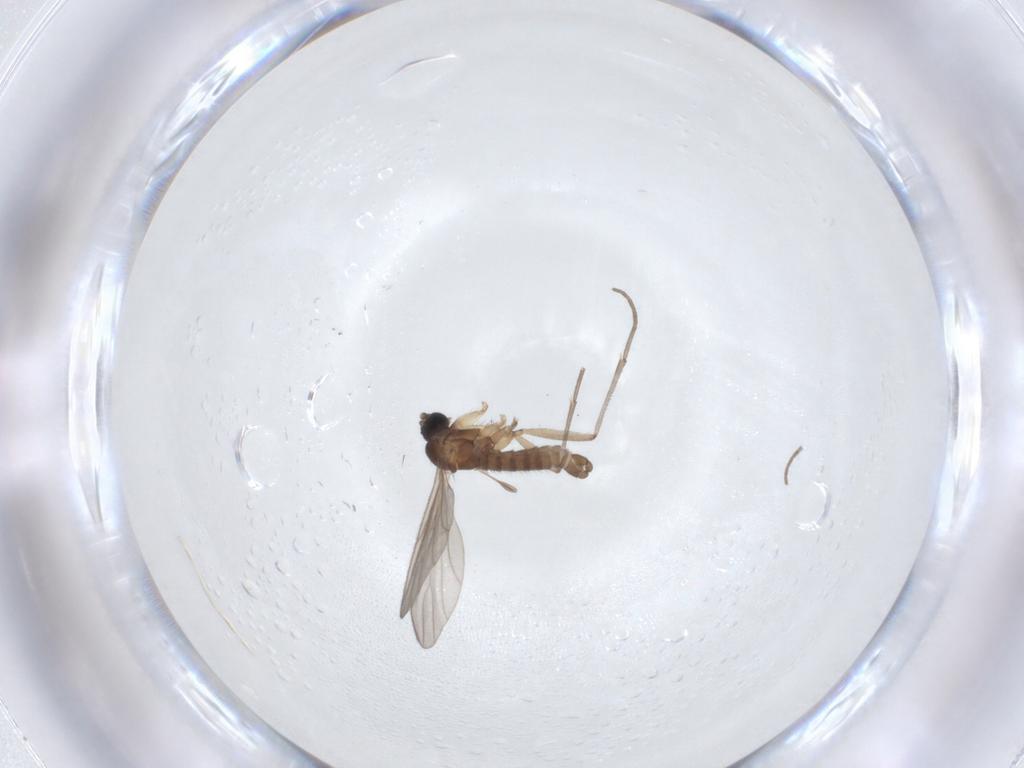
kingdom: Animalia
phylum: Arthropoda
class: Insecta
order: Diptera
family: Sciaridae
